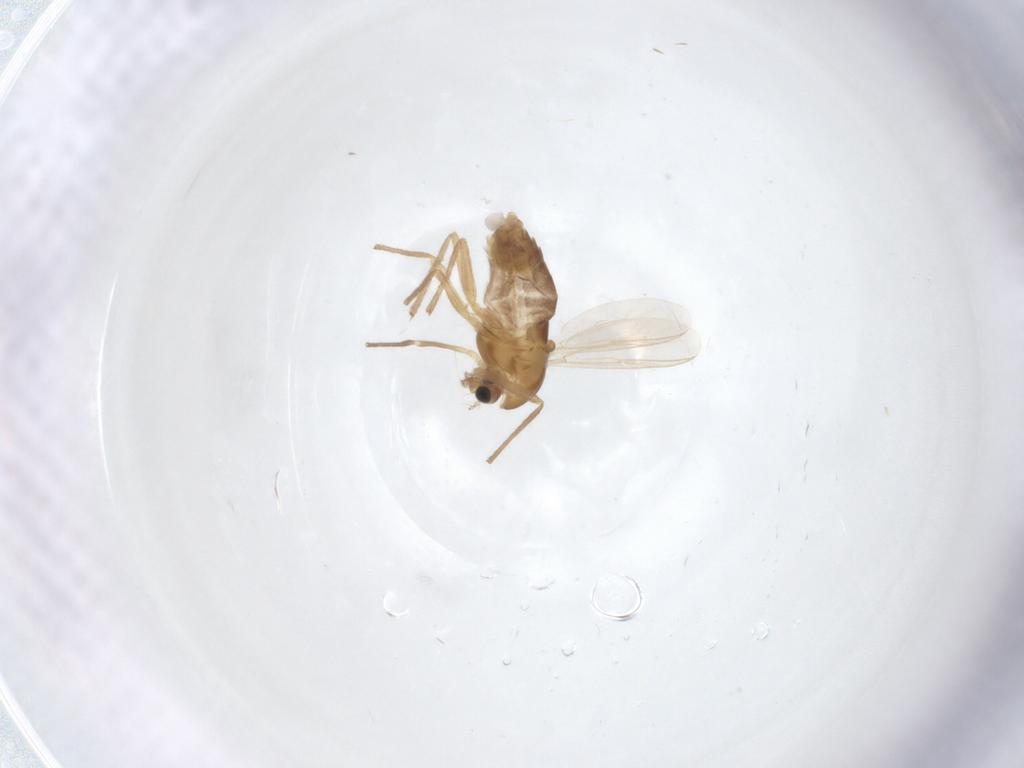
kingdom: Animalia
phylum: Arthropoda
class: Insecta
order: Diptera
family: Chironomidae
